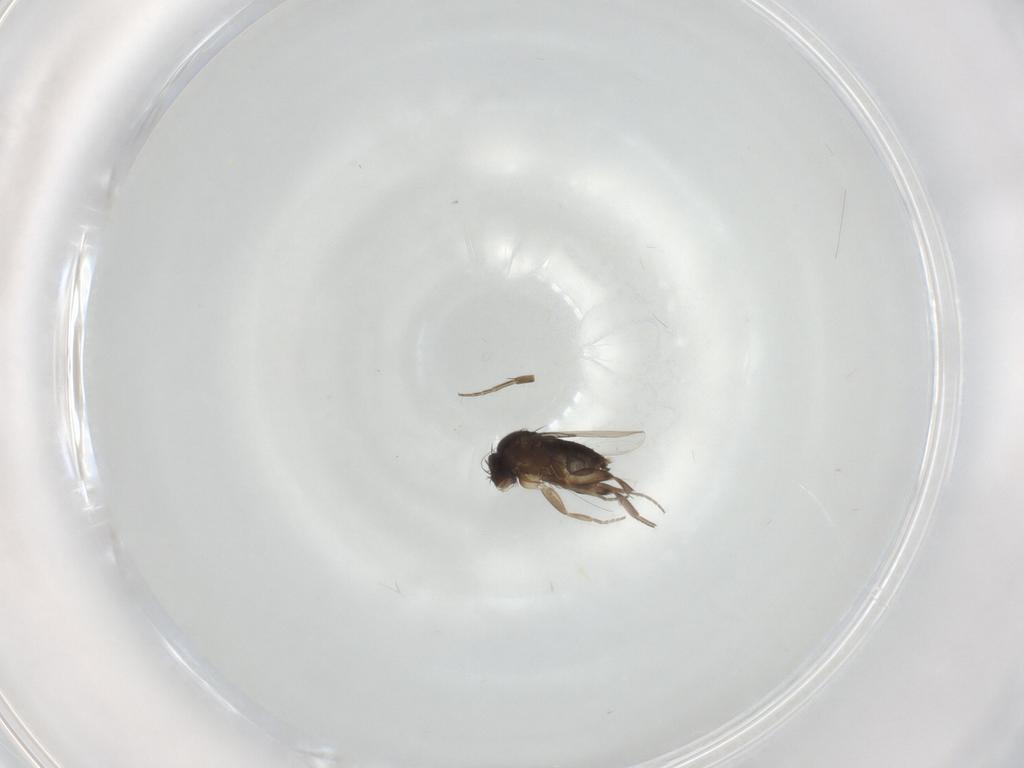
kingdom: Animalia
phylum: Arthropoda
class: Insecta
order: Diptera
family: Phoridae
